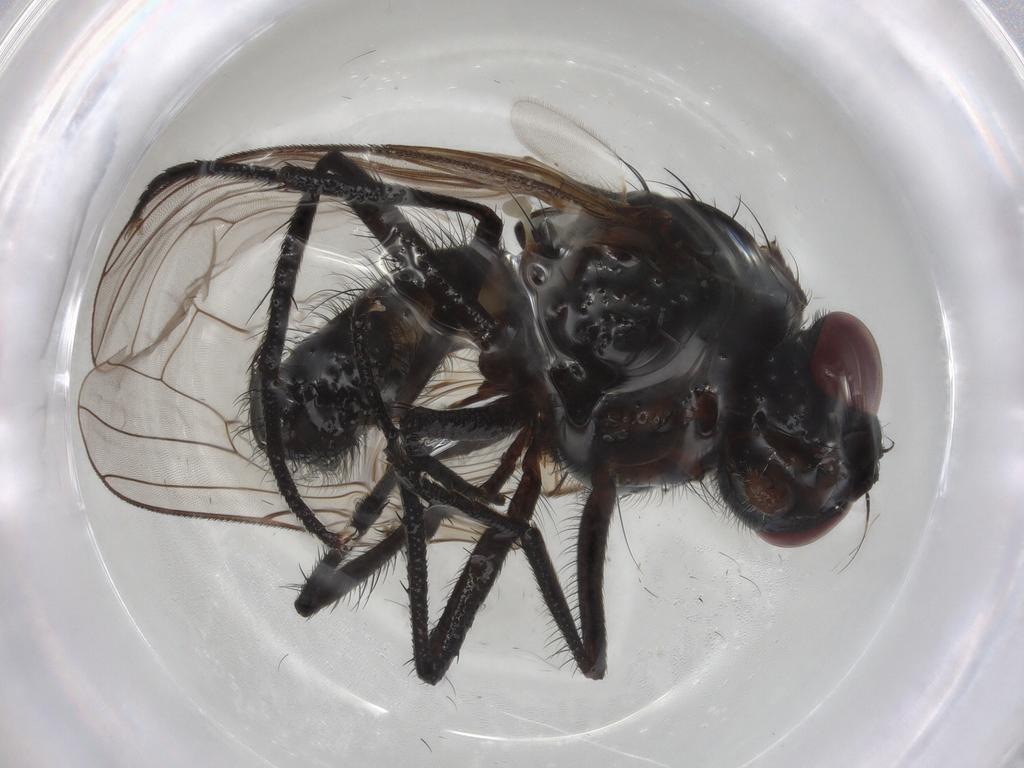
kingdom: Animalia
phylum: Arthropoda
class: Insecta
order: Diptera
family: Anthomyiidae
